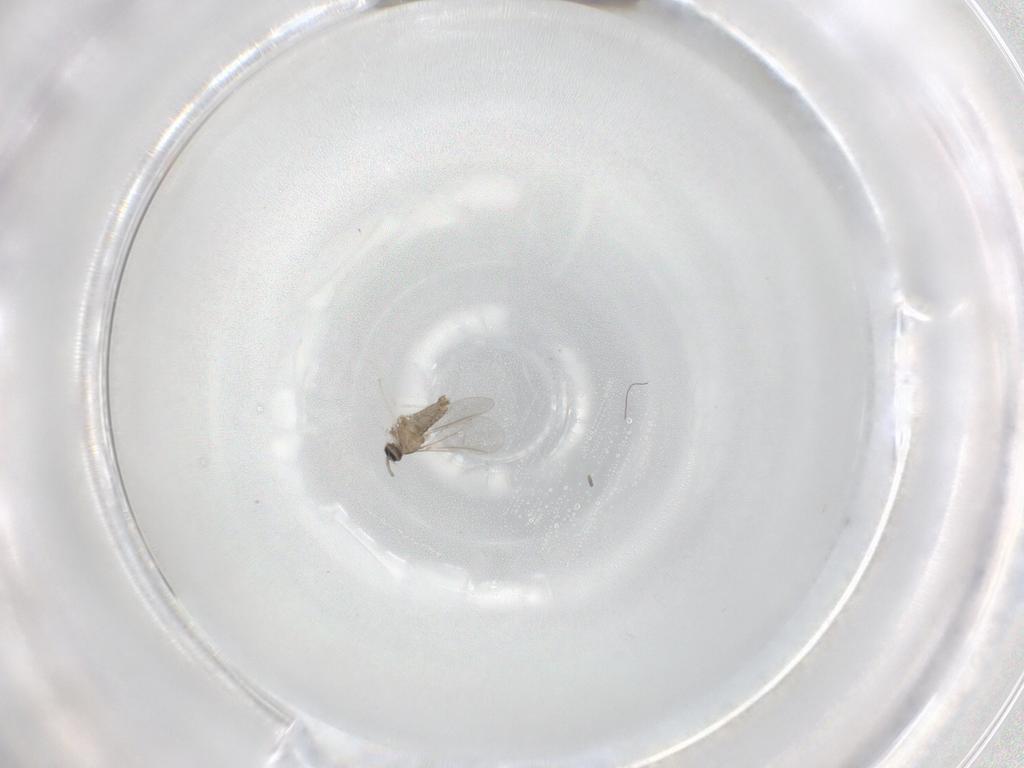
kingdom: Animalia
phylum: Arthropoda
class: Insecta
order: Diptera
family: Cecidomyiidae
